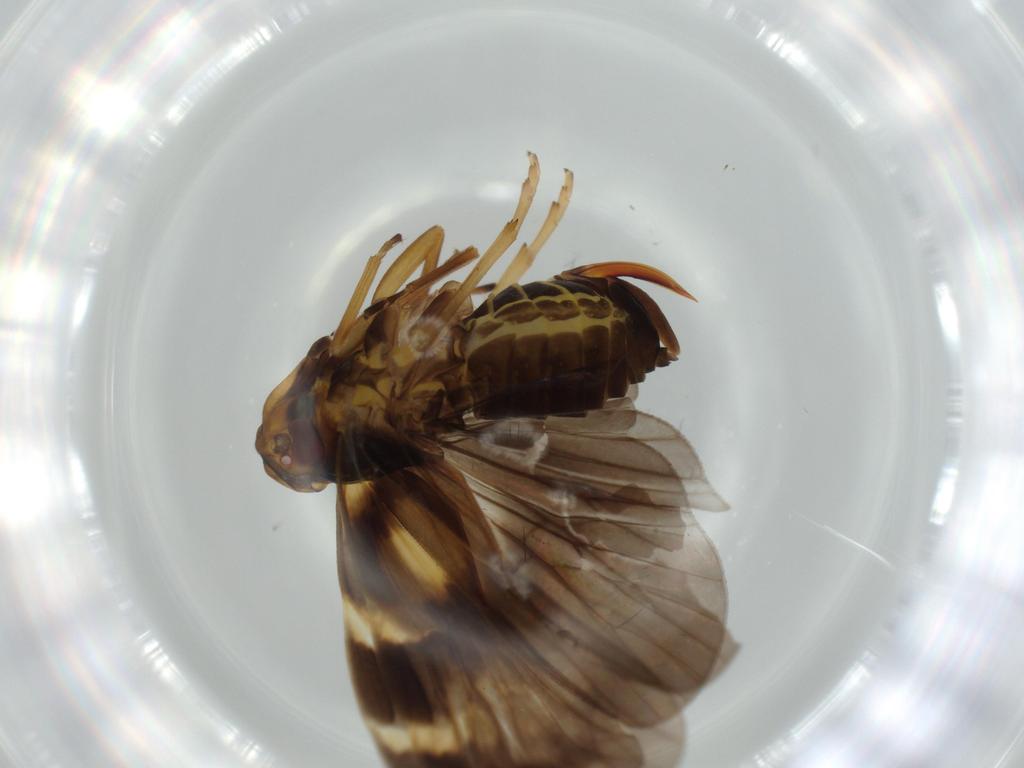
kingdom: Animalia
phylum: Arthropoda
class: Insecta
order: Hemiptera
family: Cixiidae
